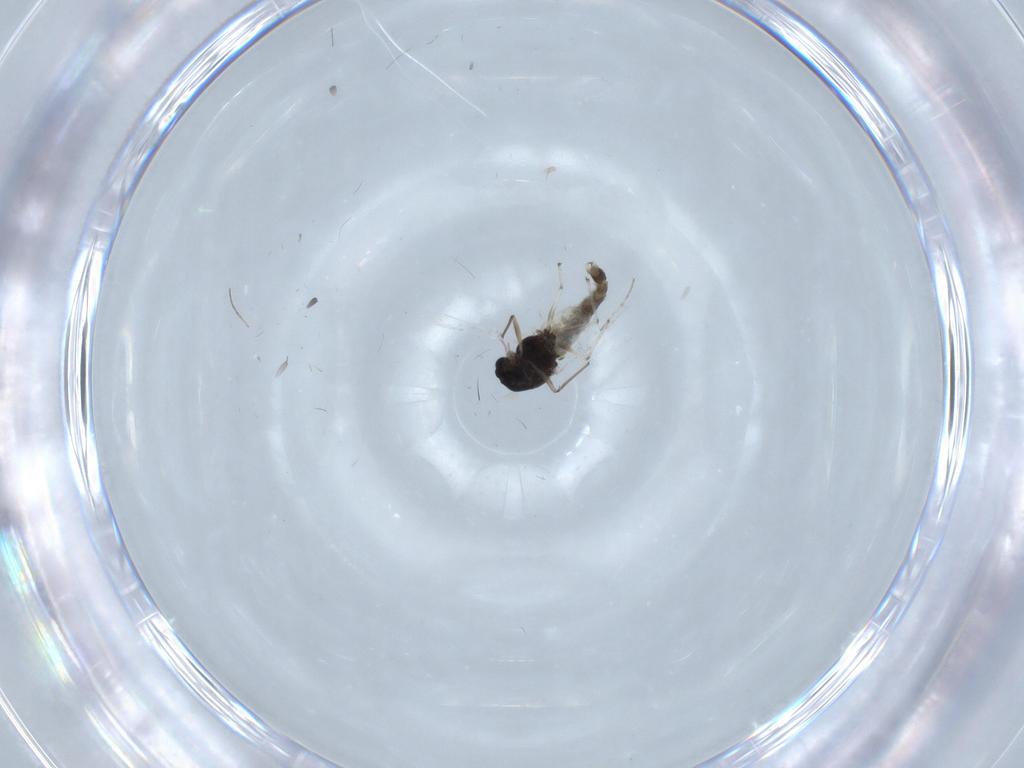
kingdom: Animalia
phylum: Arthropoda
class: Insecta
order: Diptera
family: Chironomidae
